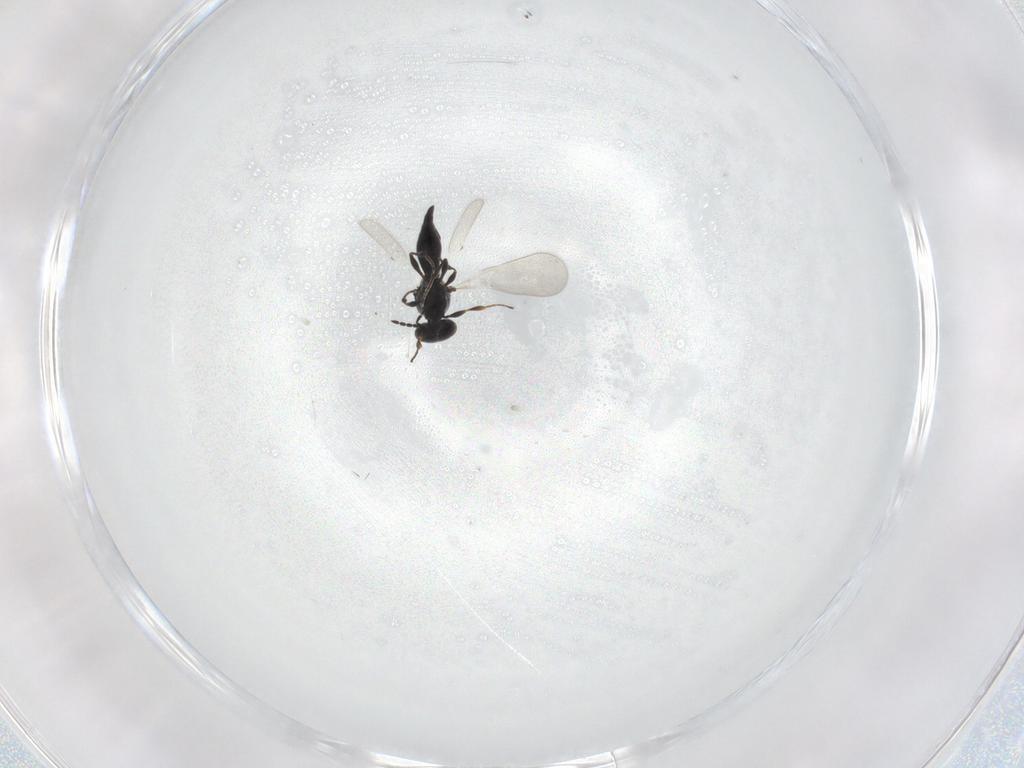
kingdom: Animalia
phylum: Arthropoda
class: Insecta
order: Hymenoptera
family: Platygastridae
